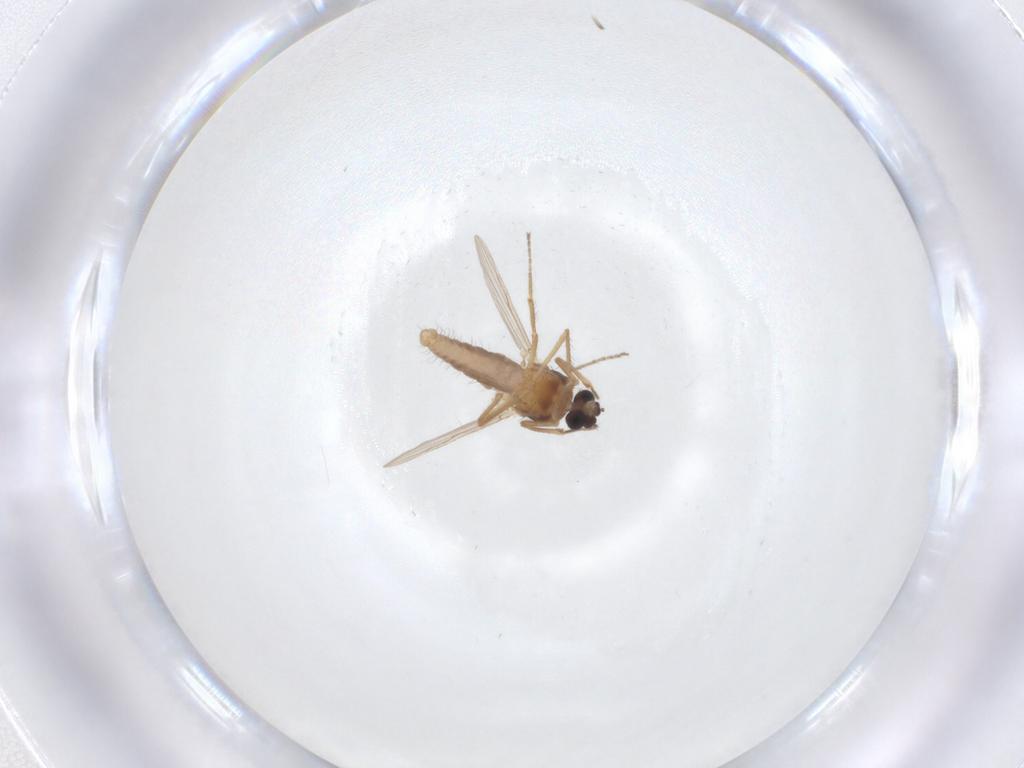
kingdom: Animalia
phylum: Arthropoda
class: Insecta
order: Diptera
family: Ceratopogonidae
